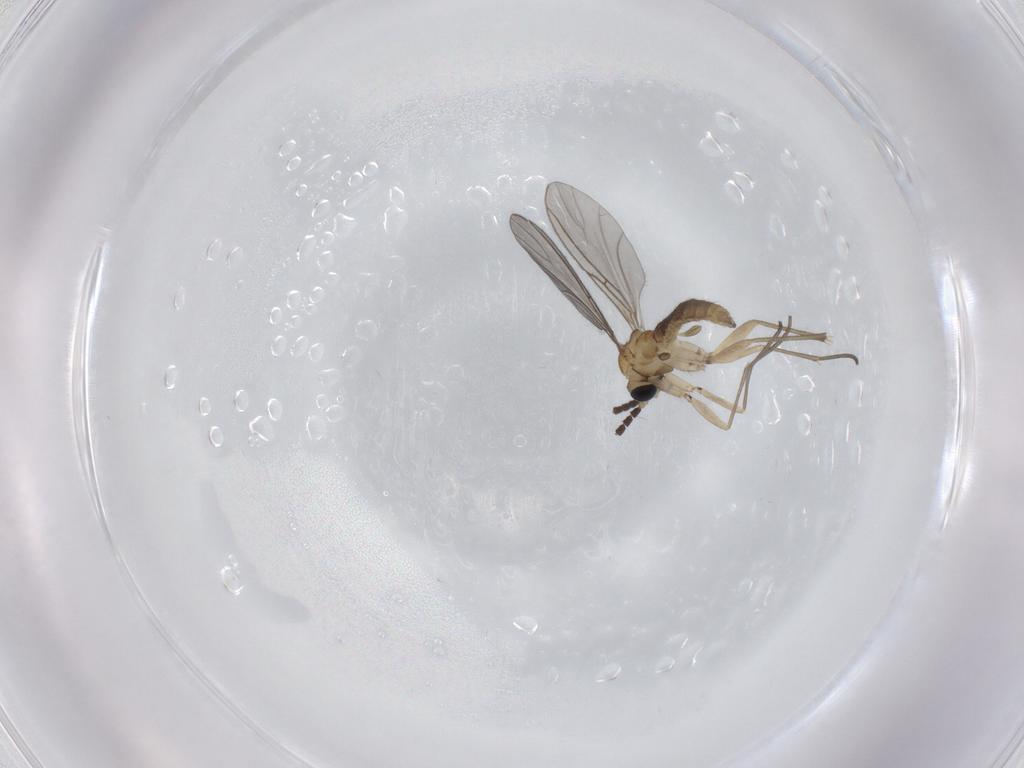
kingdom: Animalia
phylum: Arthropoda
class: Insecta
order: Diptera
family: Sciaridae
